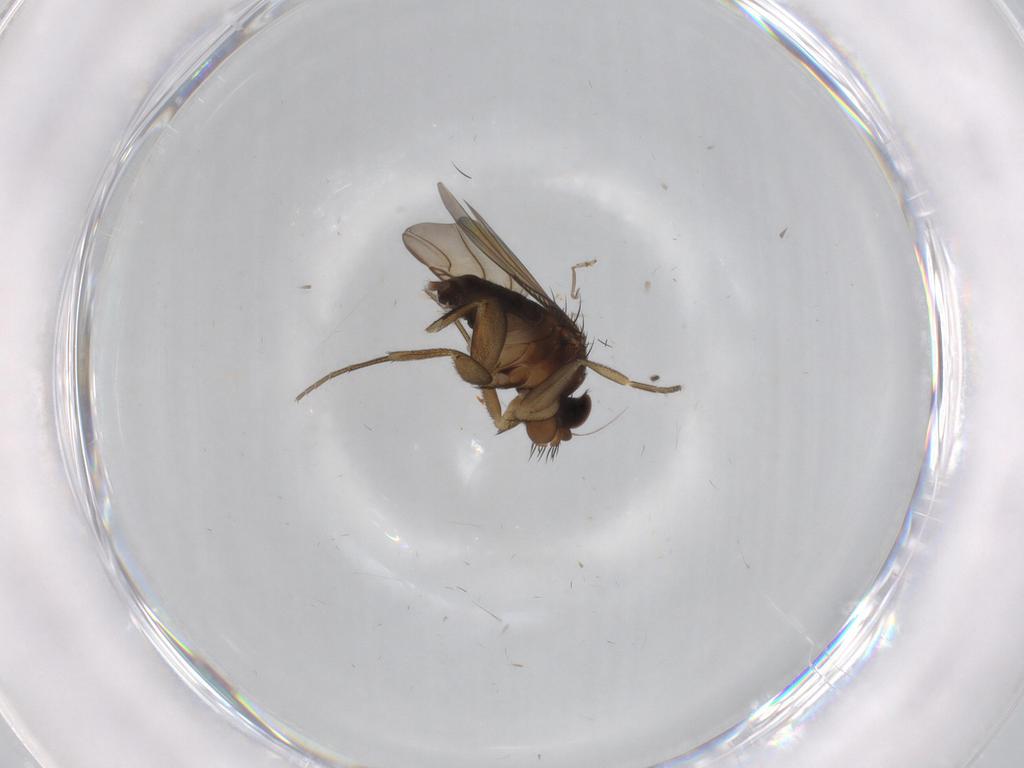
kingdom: Animalia
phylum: Arthropoda
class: Insecta
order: Diptera
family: Phoridae
